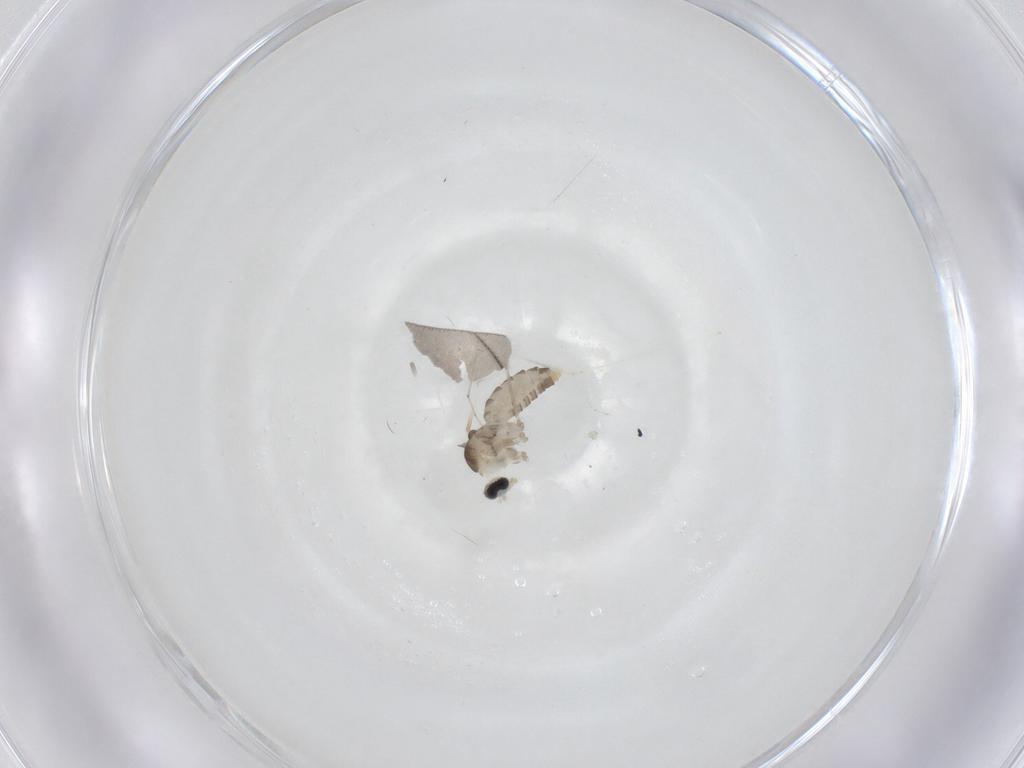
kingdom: Animalia
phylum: Arthropoda
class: Insecta
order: Diptera
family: Cecidomyiidae
